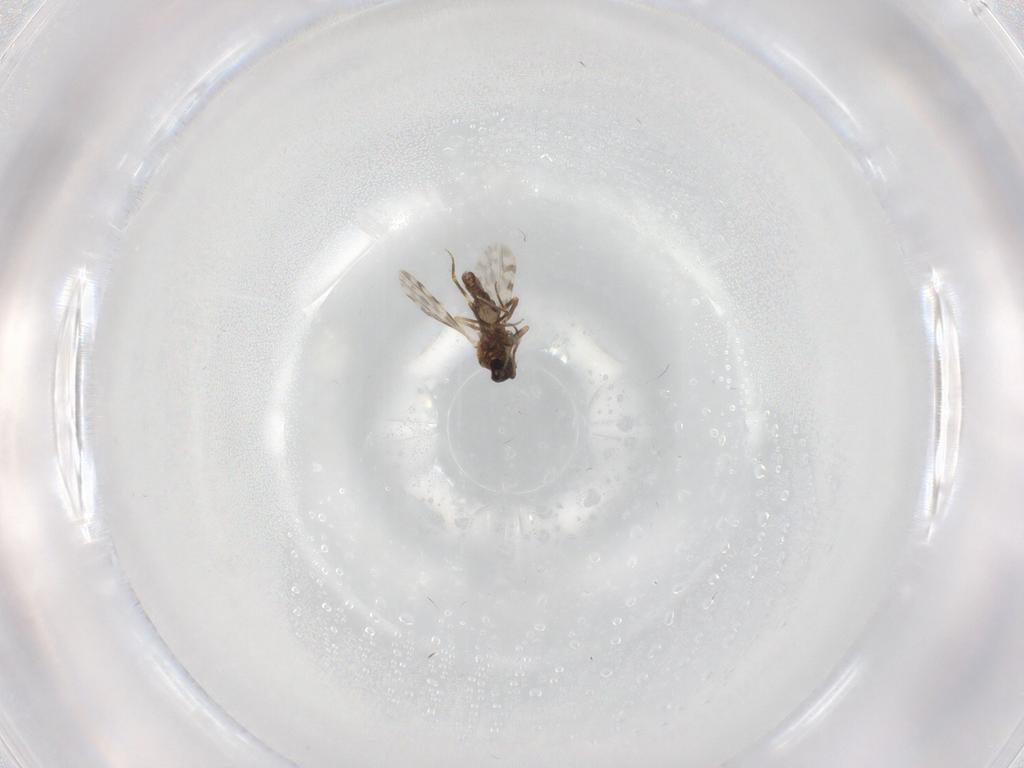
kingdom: Animalia
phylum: Arthropoda
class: Insecta
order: Diptera
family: Ceratopogonidae
